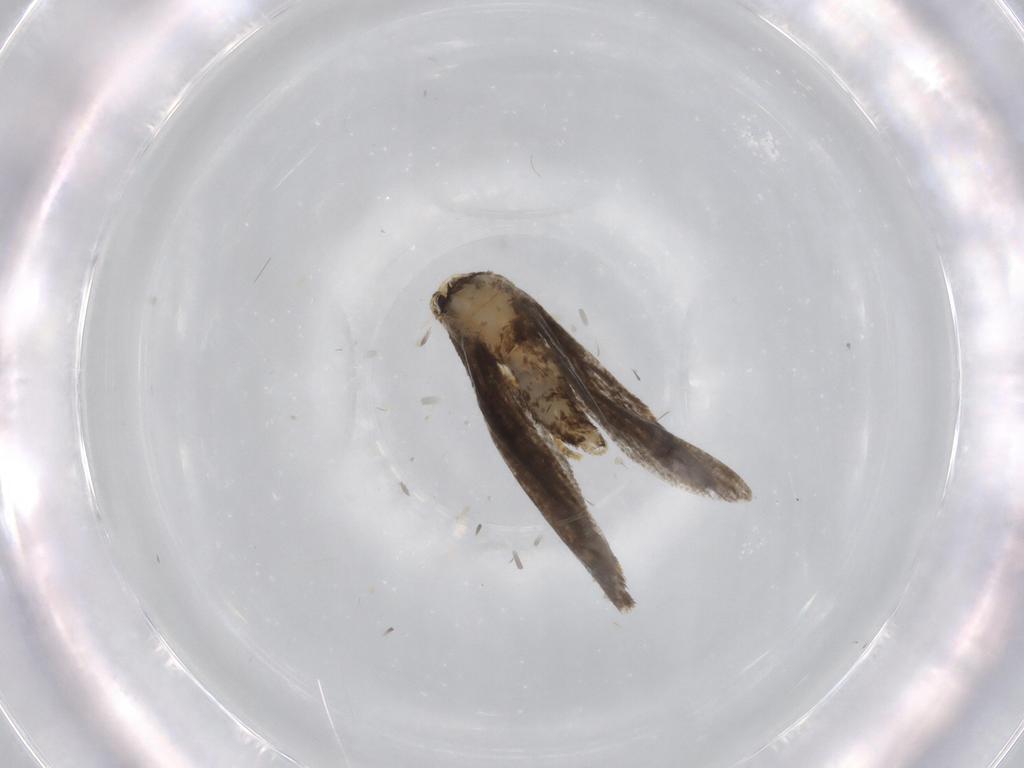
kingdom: Animalia
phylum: Arthropoda
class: Insecta
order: Lepidoptera
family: Psychidae
